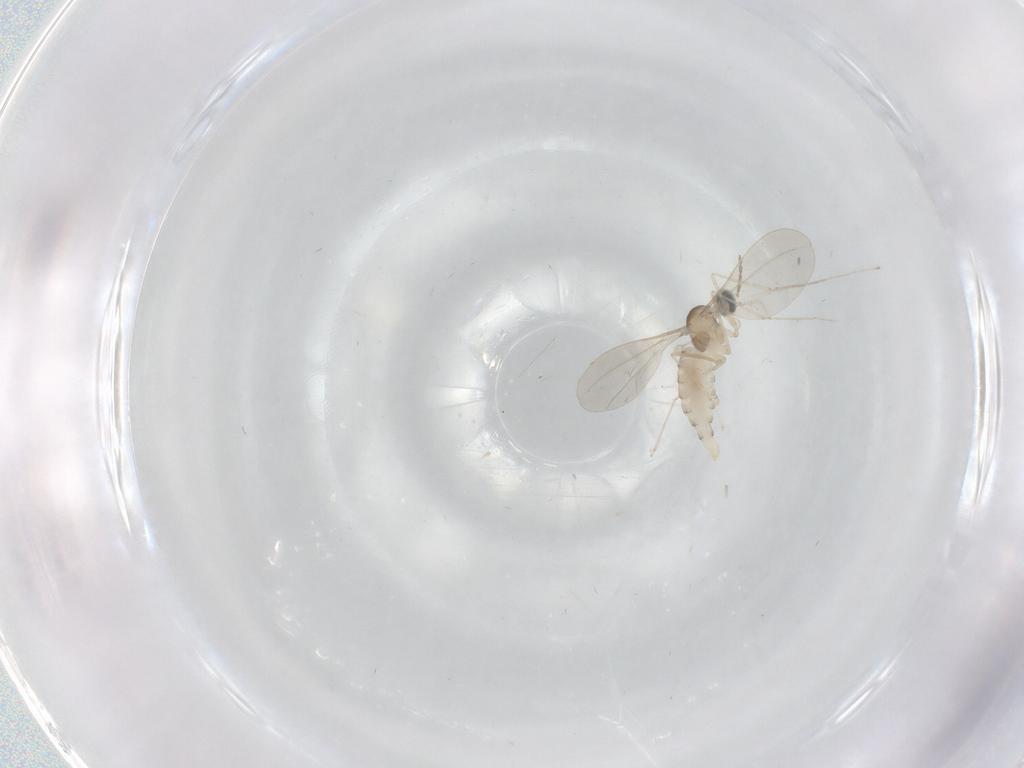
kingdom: Animalia
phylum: Arthropoda
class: Insecta
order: Diptera
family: Cecidomyiidae
